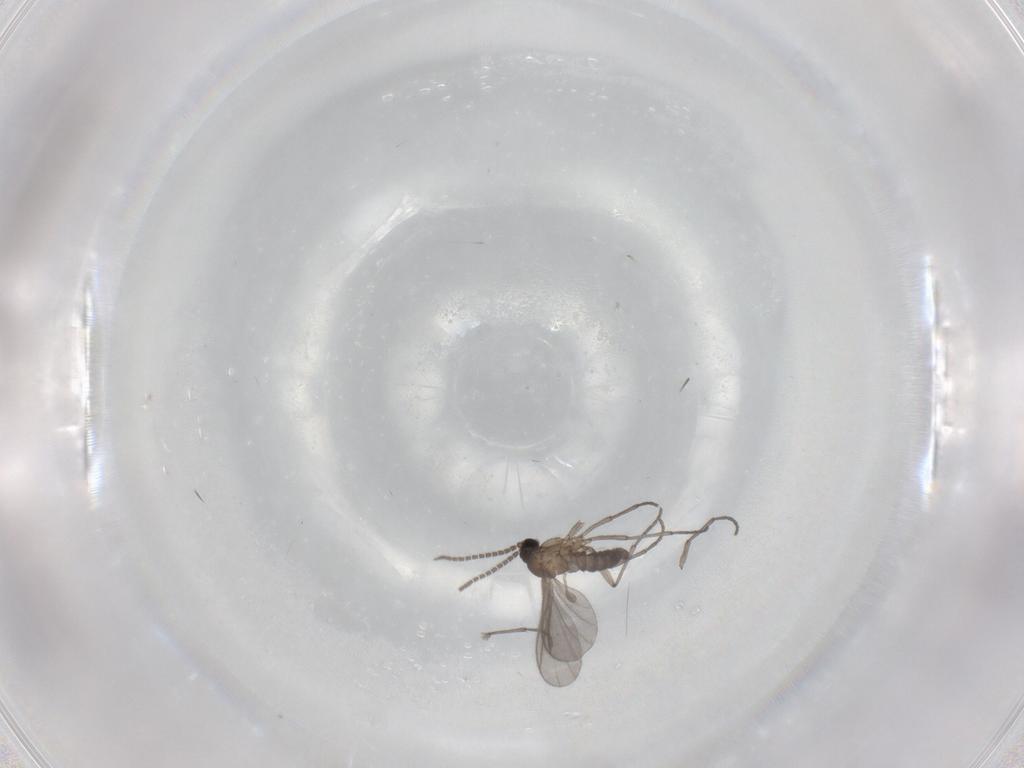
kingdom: Animalia
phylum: Arthropoda
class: Insecta
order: Diptera
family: Sciaridae
